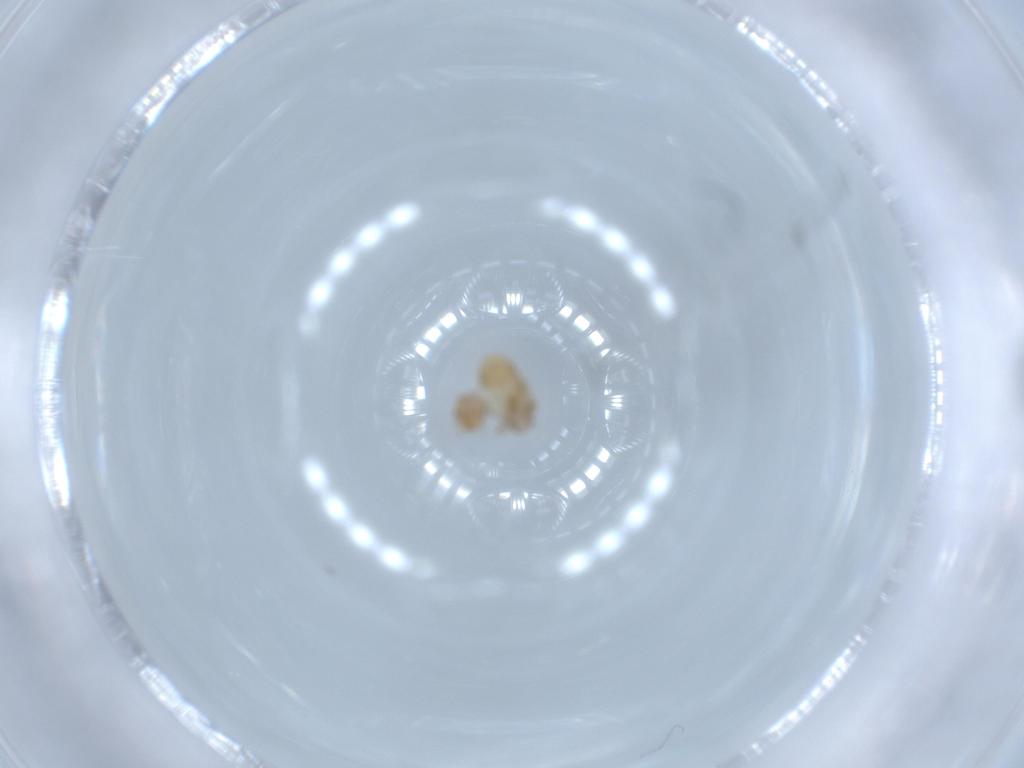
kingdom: Animalia
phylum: Arthropoda
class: Insecta
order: Psocodea
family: Liposcelididae
